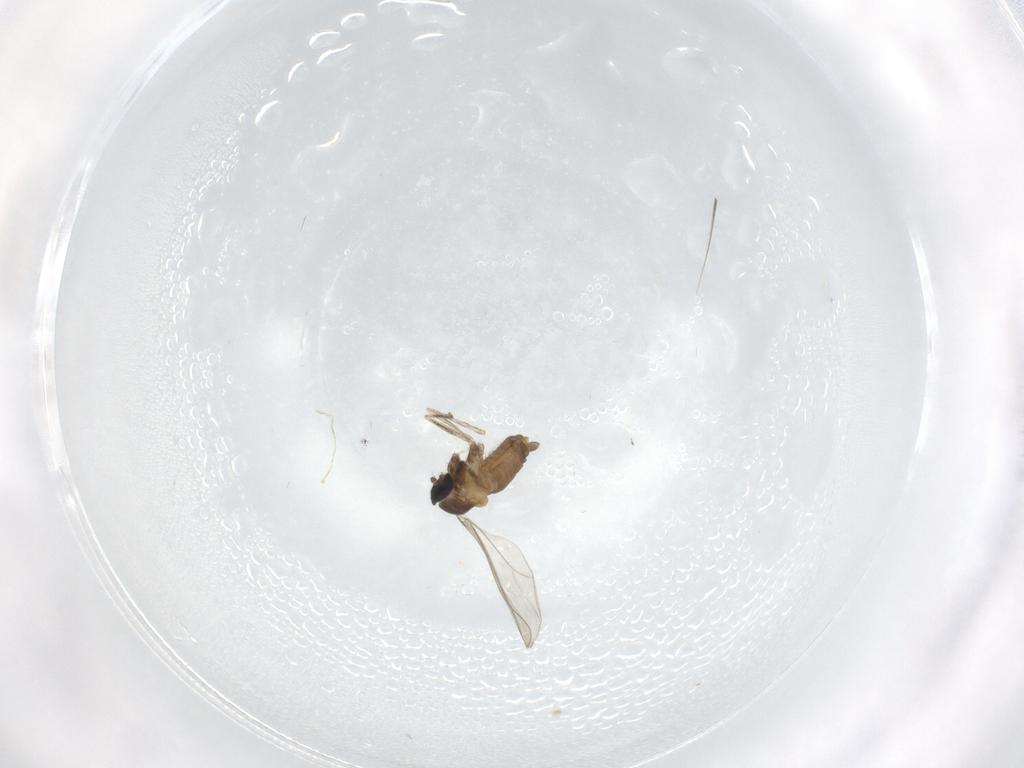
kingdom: Animalia
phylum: Arthropoda
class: Insecta
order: Diptera
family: Cecidomyiidae
